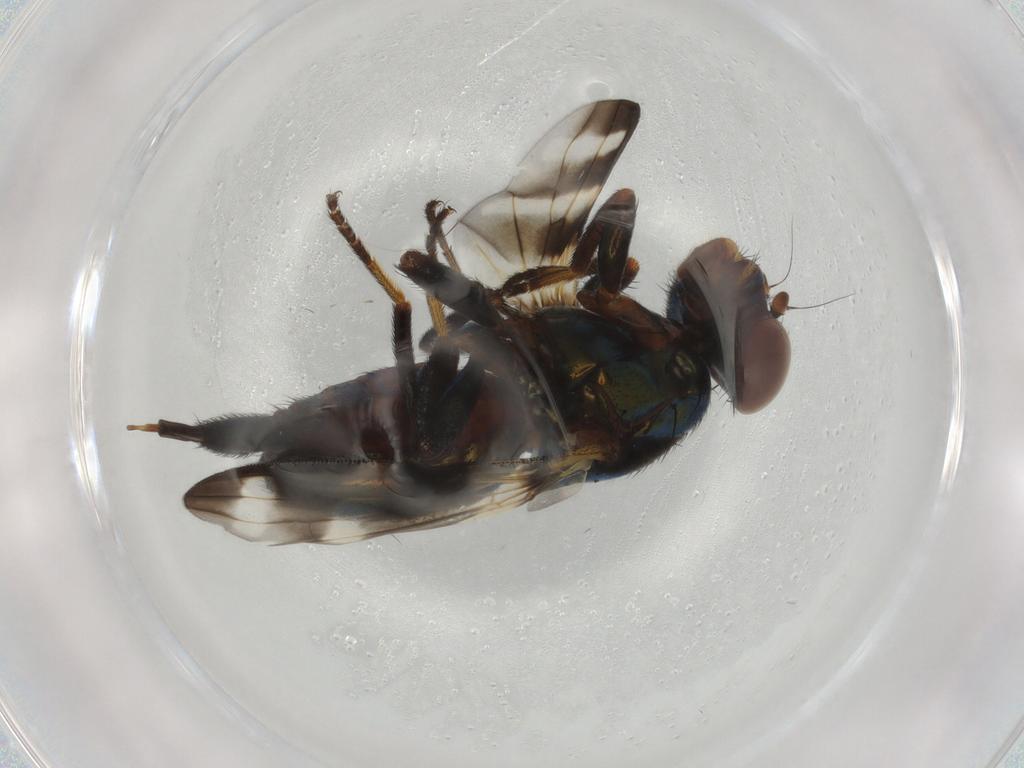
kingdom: Animalia
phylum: Arthropoda
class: Insecta
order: Diptera
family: Ulidiidae
